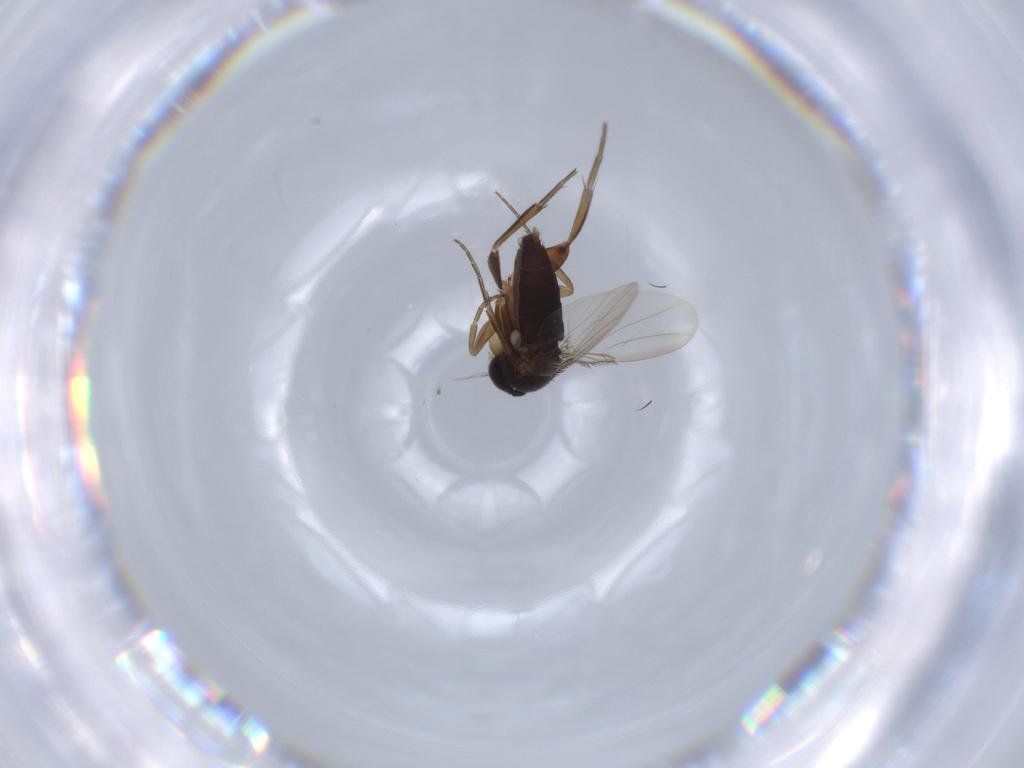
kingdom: Animalia
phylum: Arthropoda
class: Insecta
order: Diptera
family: Phoridae
